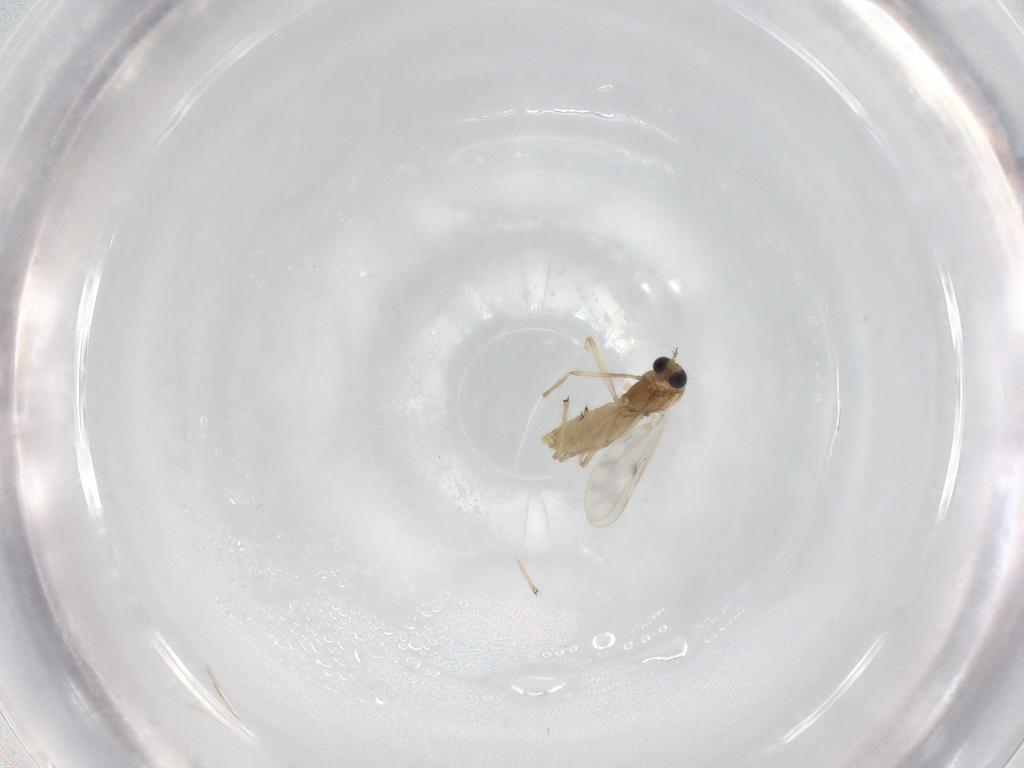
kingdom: Animalia
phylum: Arthropoda
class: Insecta
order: Diptera
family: Chironomidae
